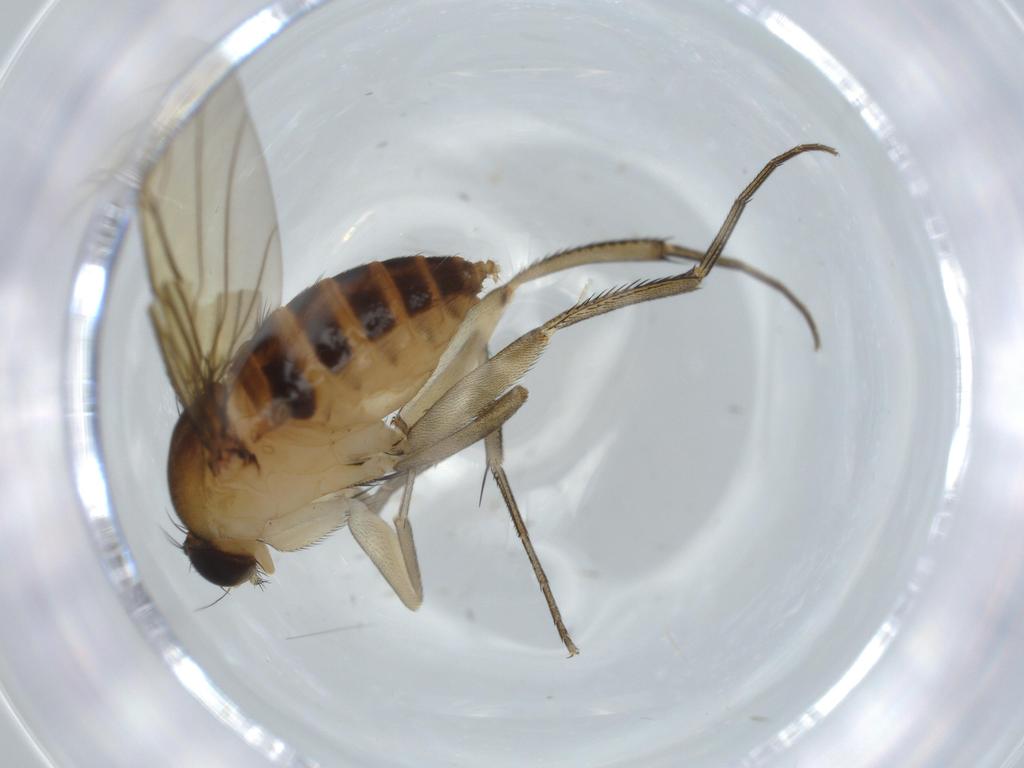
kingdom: Animalia
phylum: Arthropoda
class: Insecta
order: Diptera
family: Phoridae
